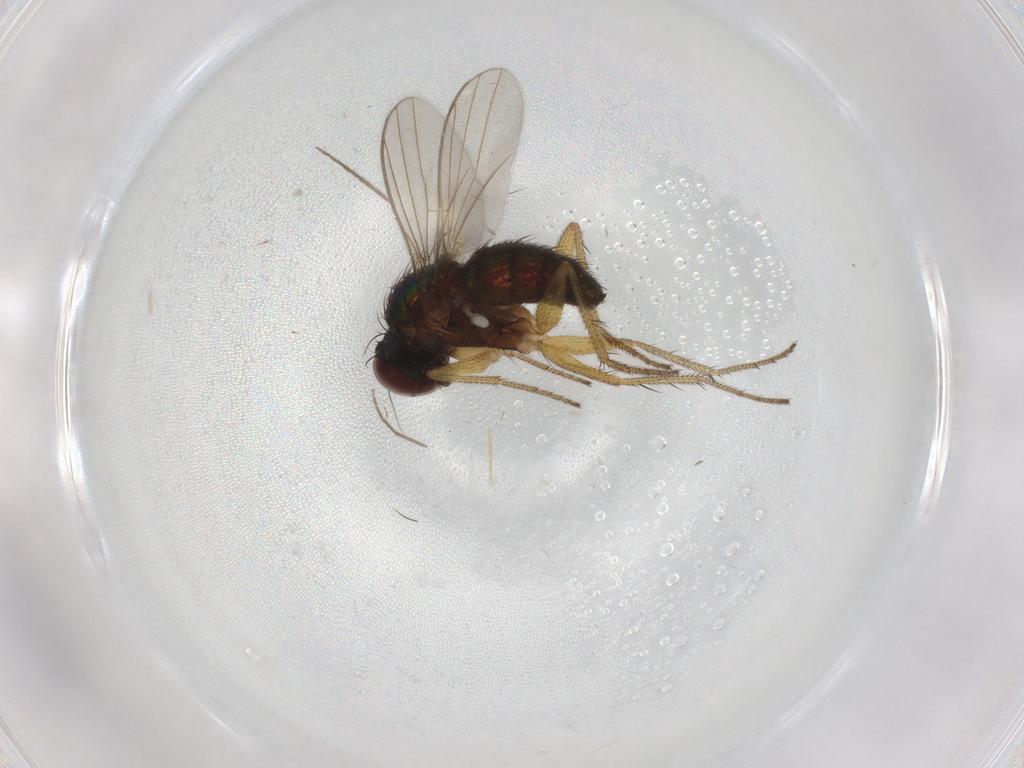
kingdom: Animalia
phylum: Arthropoda
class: Insecta
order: Diptera
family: Dolichopodidae
